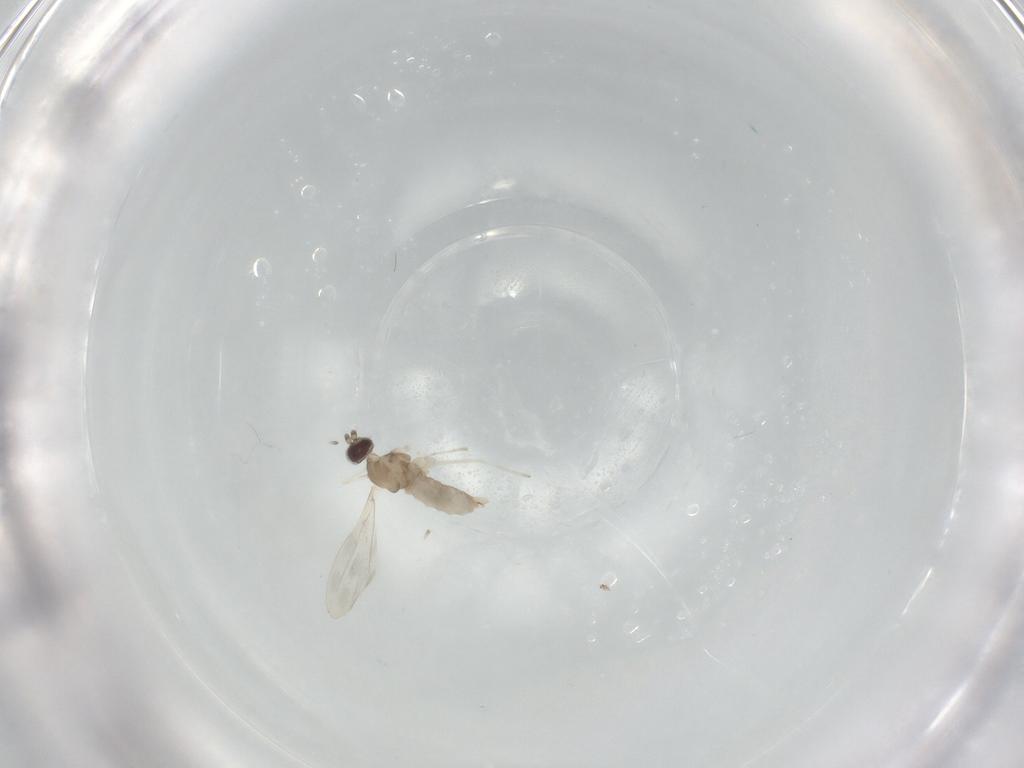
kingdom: Animalia
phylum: Arthropoda
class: Insecta
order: Diptera
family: Cecidomyiidae
